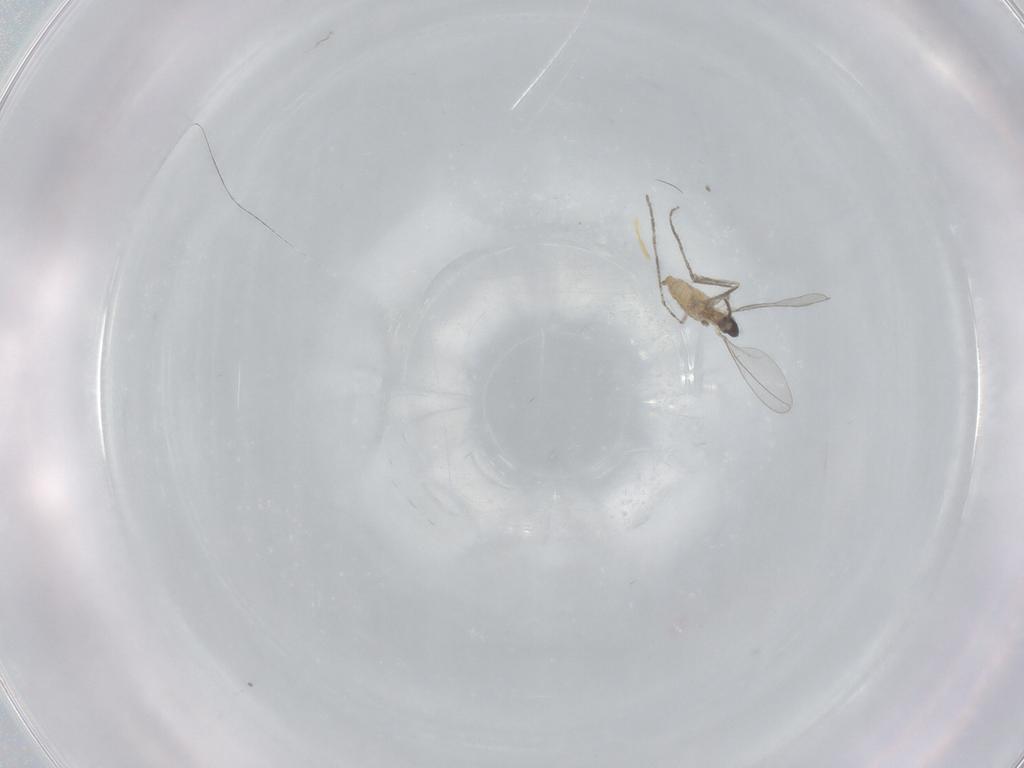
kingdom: Animalia
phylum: Arthropoda
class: Insecta
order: Diptera
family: Cecidomyiidae
